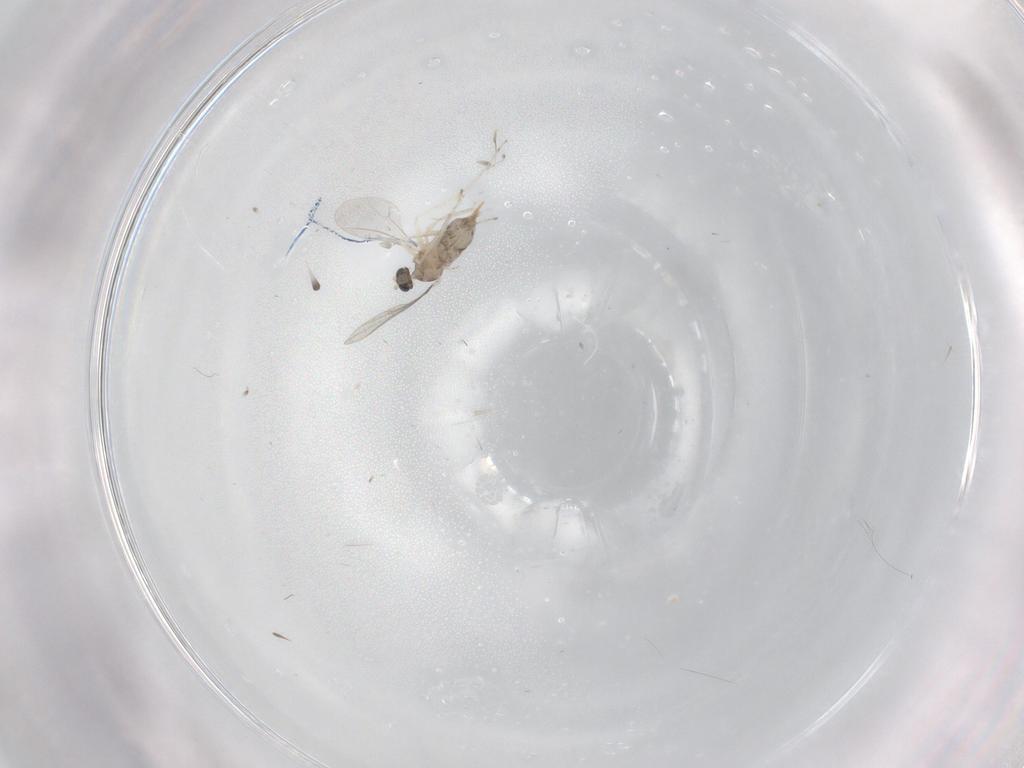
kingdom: Animalia
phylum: Arthropoda
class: Insecta
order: Diptera
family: Cecidomyiidae
